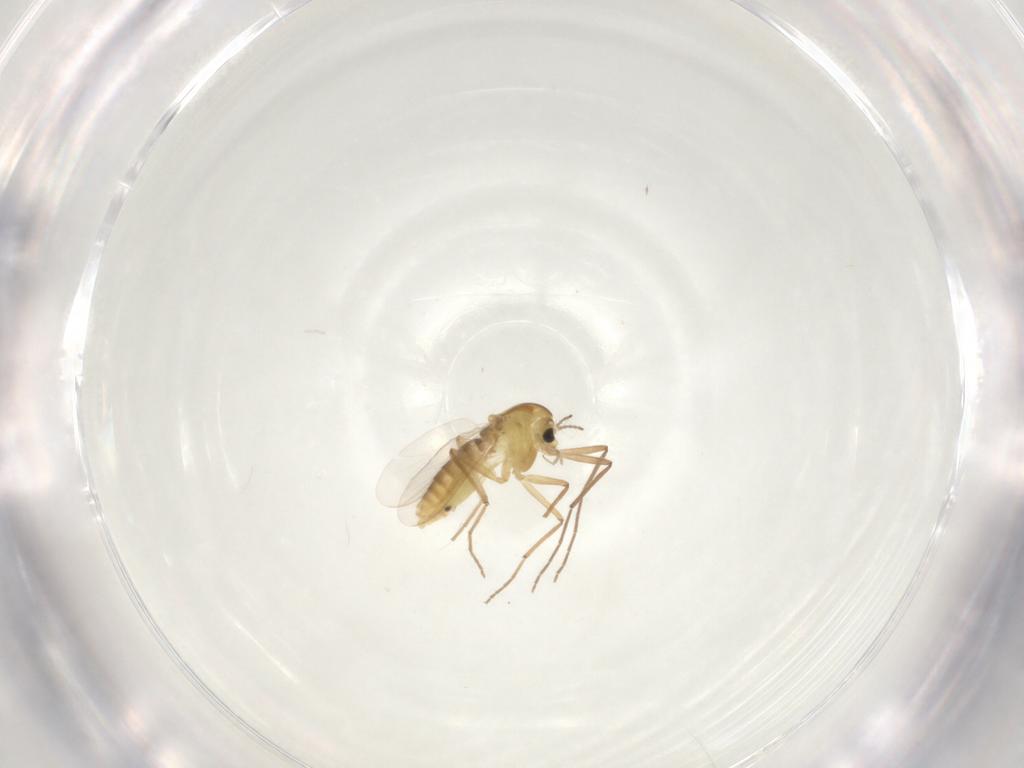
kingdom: Animalia
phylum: Arthropoda
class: Insecta
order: Diptera
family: Chironomidae
